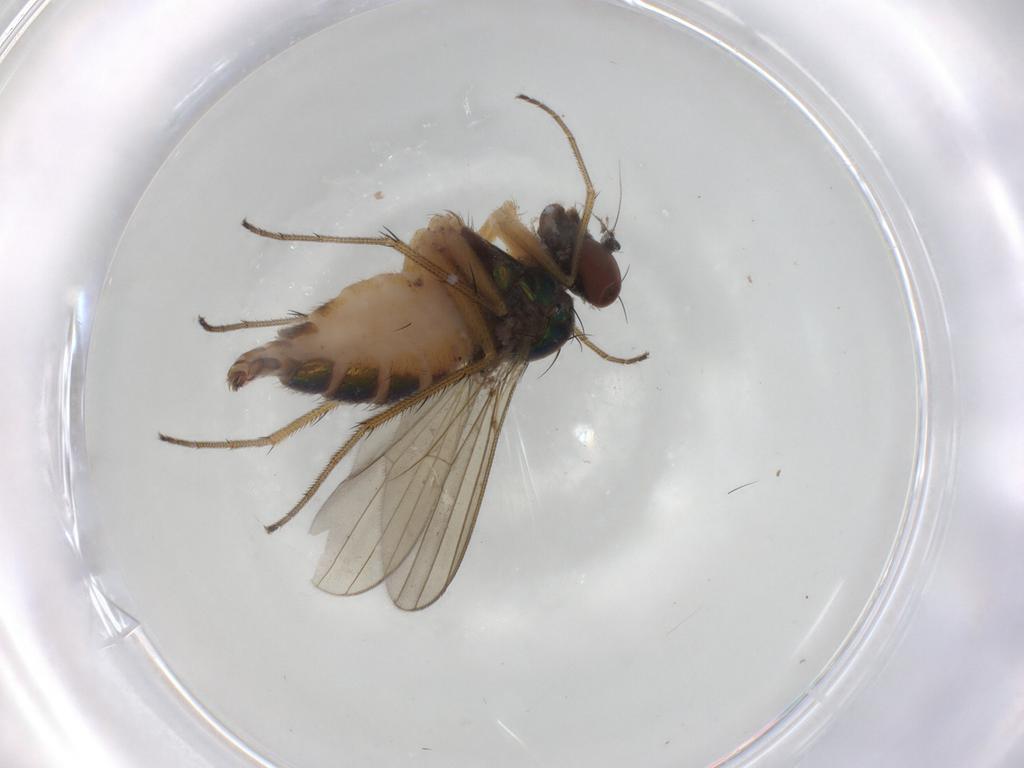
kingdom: Animalia
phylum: Arthropoda
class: Insecta
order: Diptera
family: Dolichopodidae
